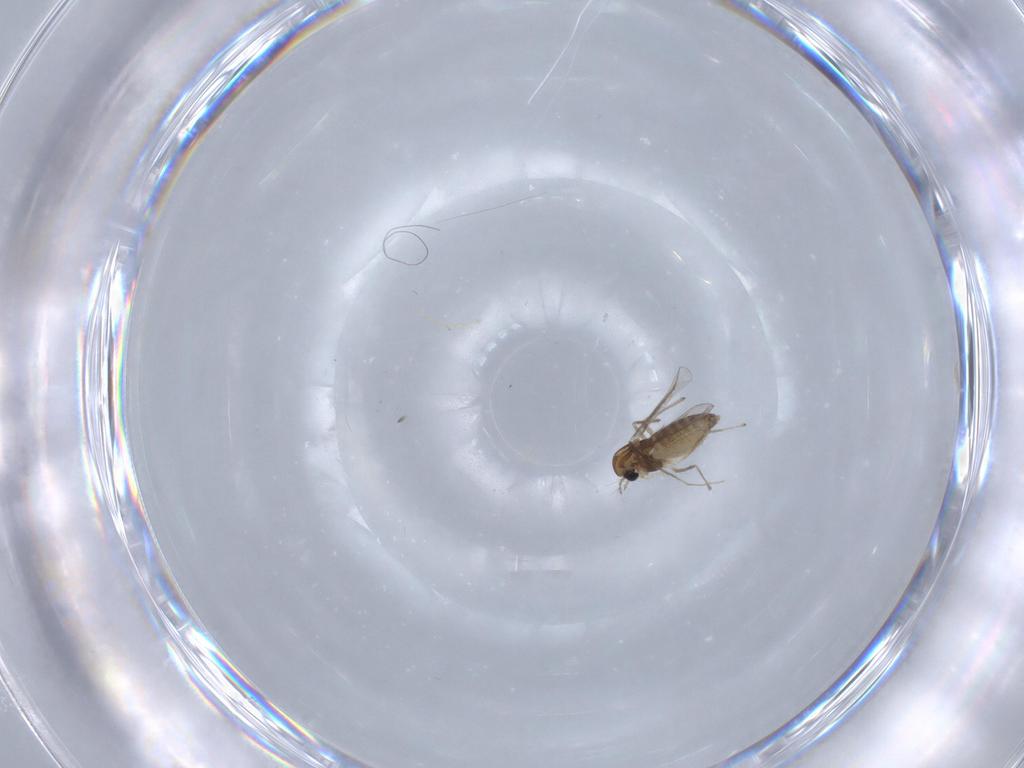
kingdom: Animalia
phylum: Arthropoda
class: Insecta
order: Diptera
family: Chironomidae
